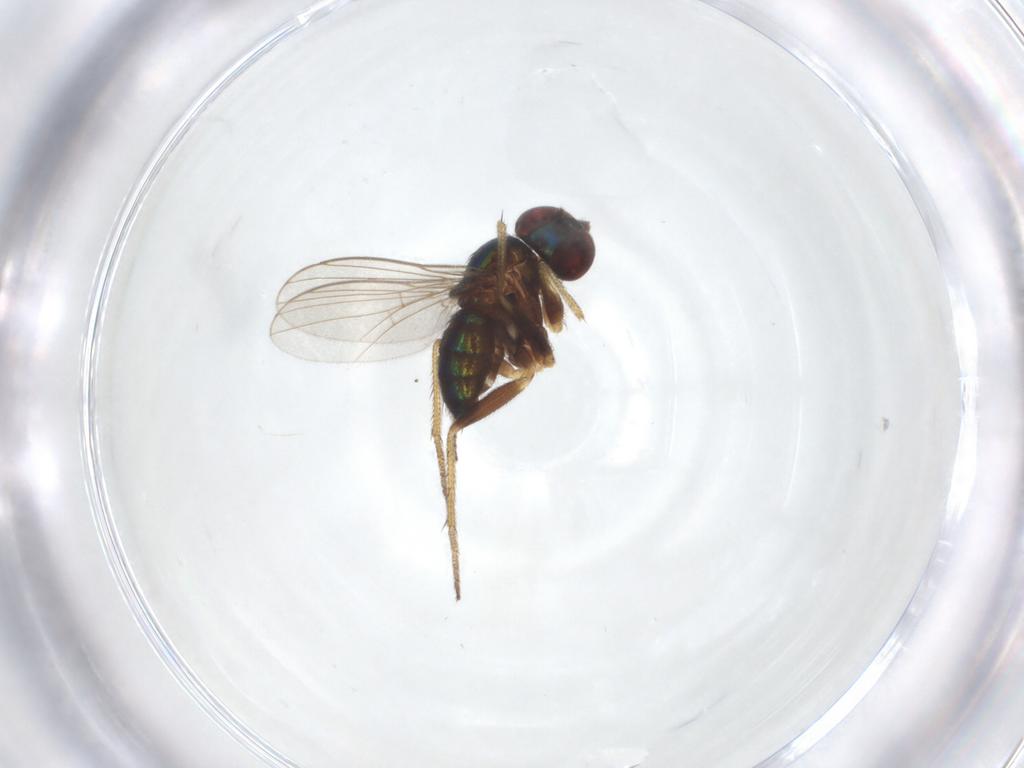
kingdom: Animalia
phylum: Arthropoda
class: Insecta
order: Diptera
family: Dolichopodidae
